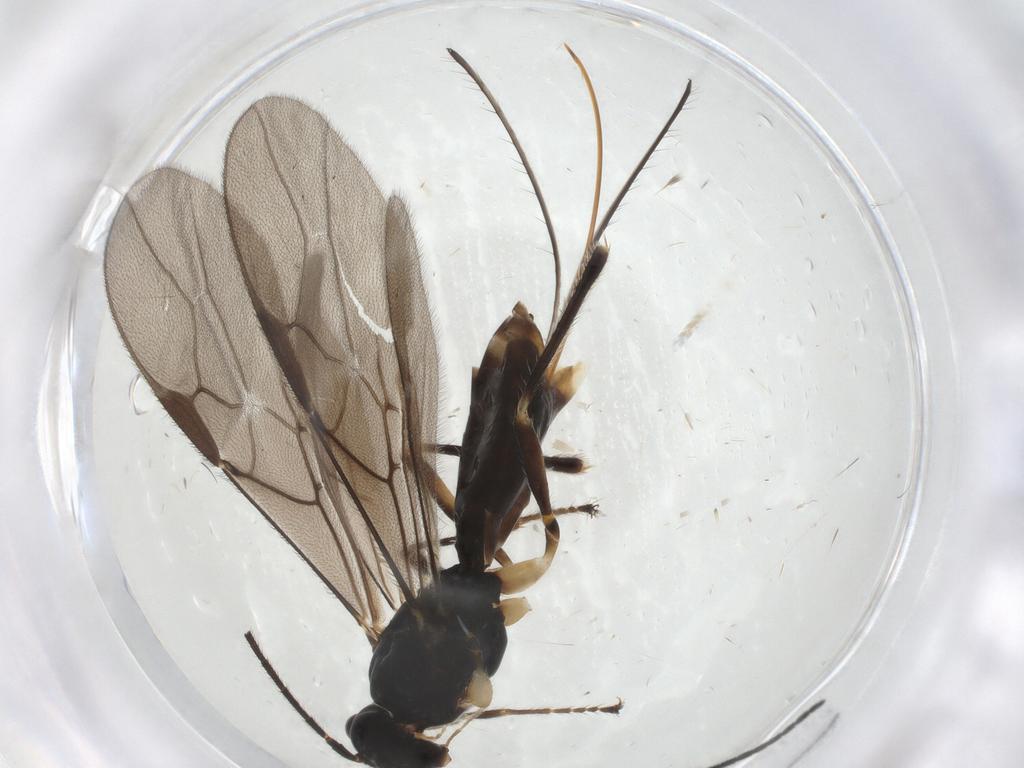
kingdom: Animalia
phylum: Arthropoda
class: Insecta
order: Hymenoptera
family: Braconidae
